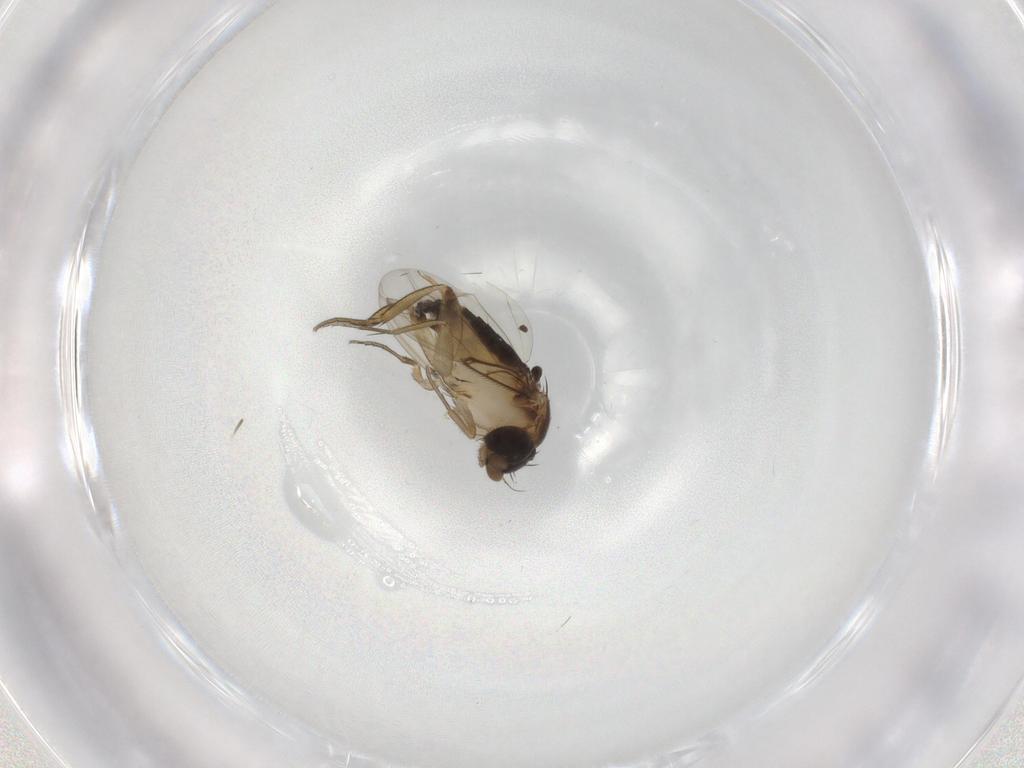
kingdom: Animalia
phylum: Arthropoda
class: Insecta
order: Diptera
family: Phoridae
